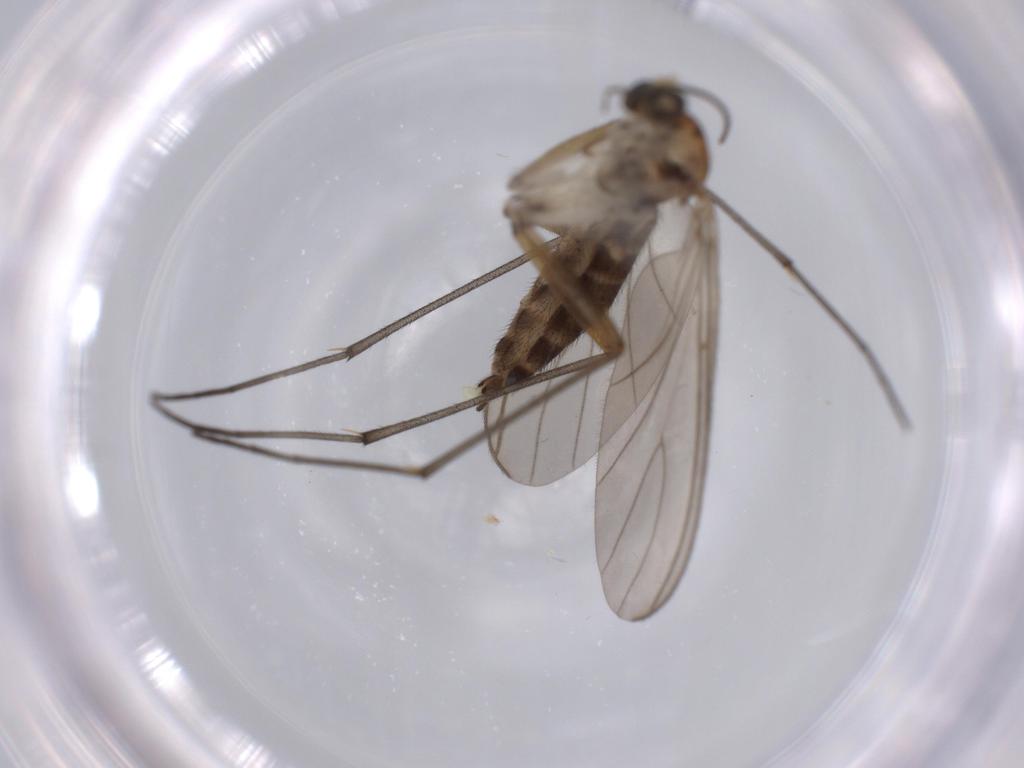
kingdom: Animalia
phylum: Arthropoda
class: Insecta
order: Diptera
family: Sciaridae
